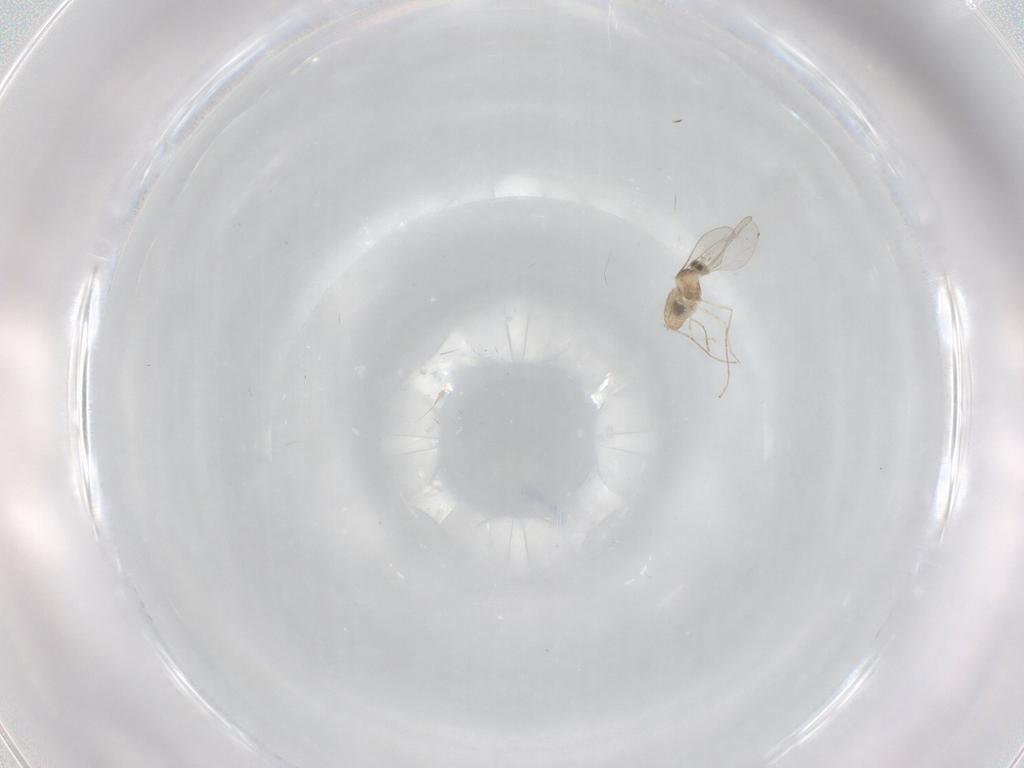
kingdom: Animalia
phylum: Arthropoda
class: Insecta
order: Diptera
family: Cecidomyiidae
